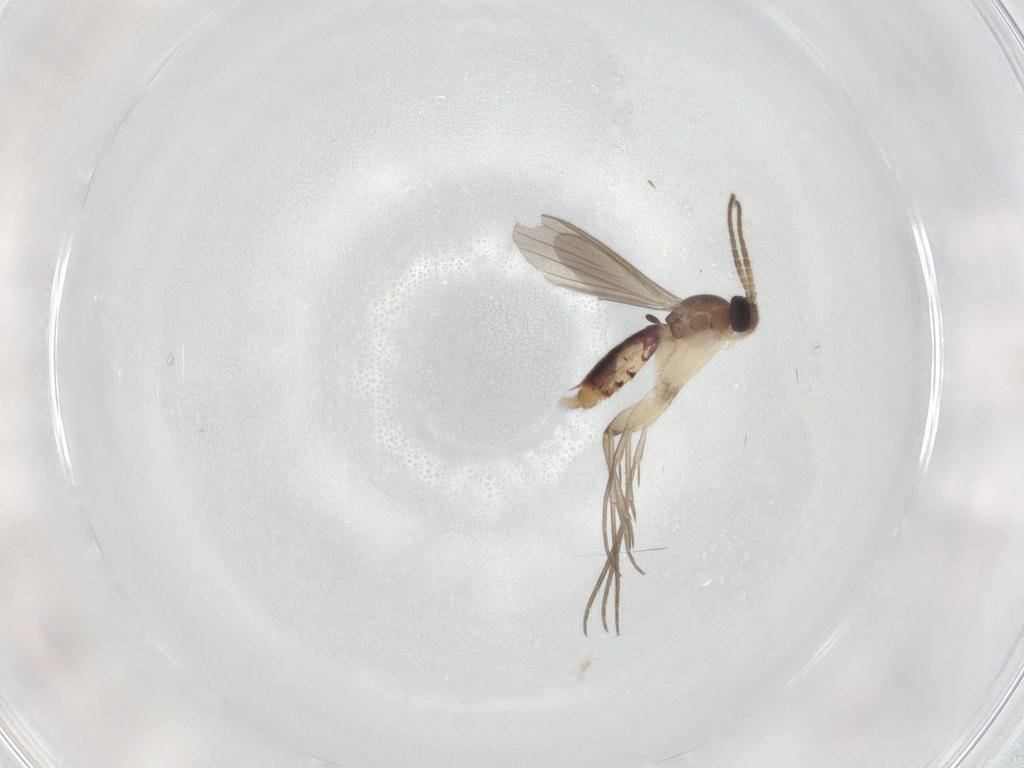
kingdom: Animalia
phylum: Arthropoda
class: Insecta
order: Diptera
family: Mycetophilidae
